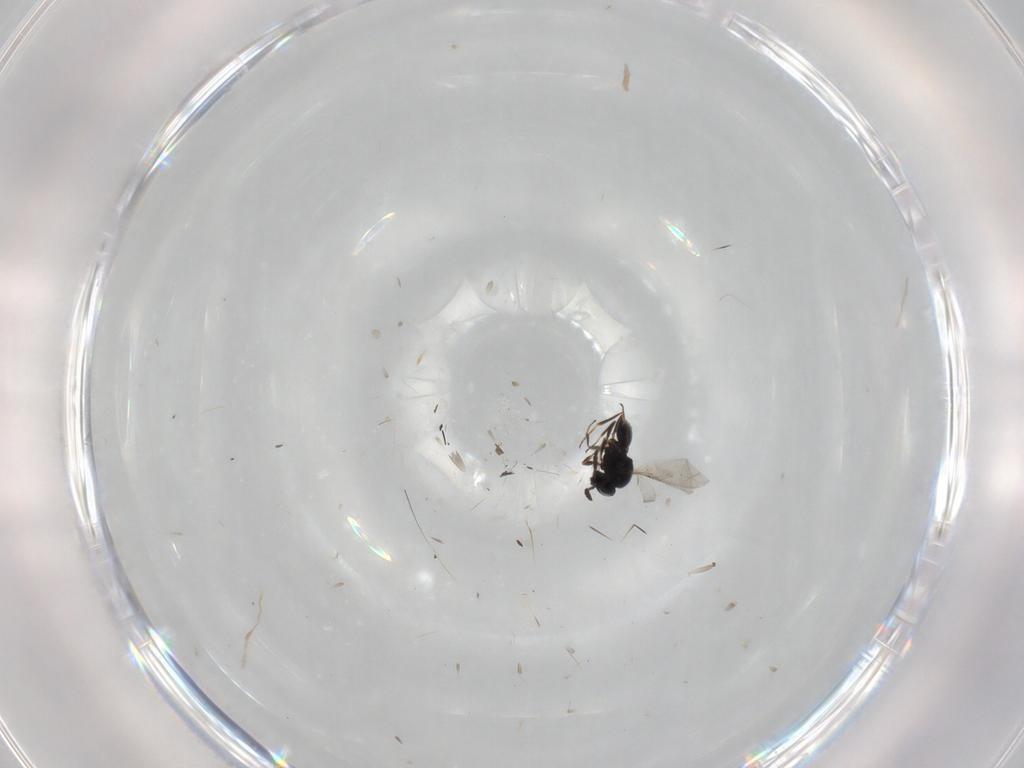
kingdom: Animalia
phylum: Arthropoda
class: Insecta
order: Hymenoptera
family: Scelionidae
